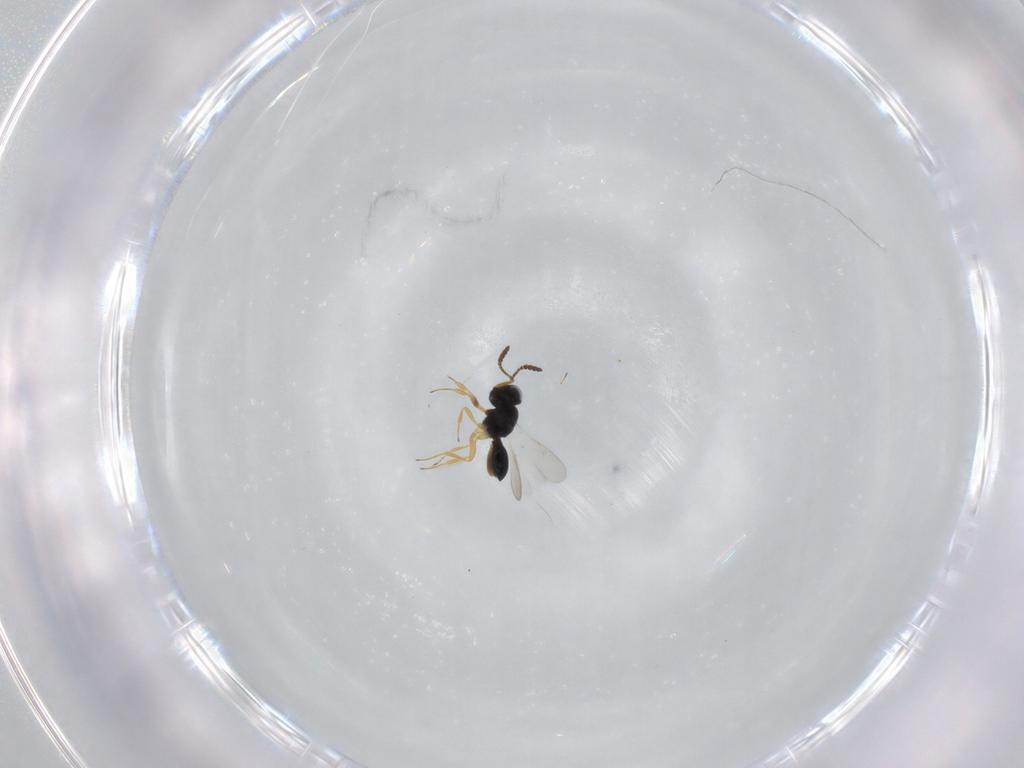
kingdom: Animalia
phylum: Arthropoda
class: Insecta
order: Hymenoptera
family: Scelionidae
